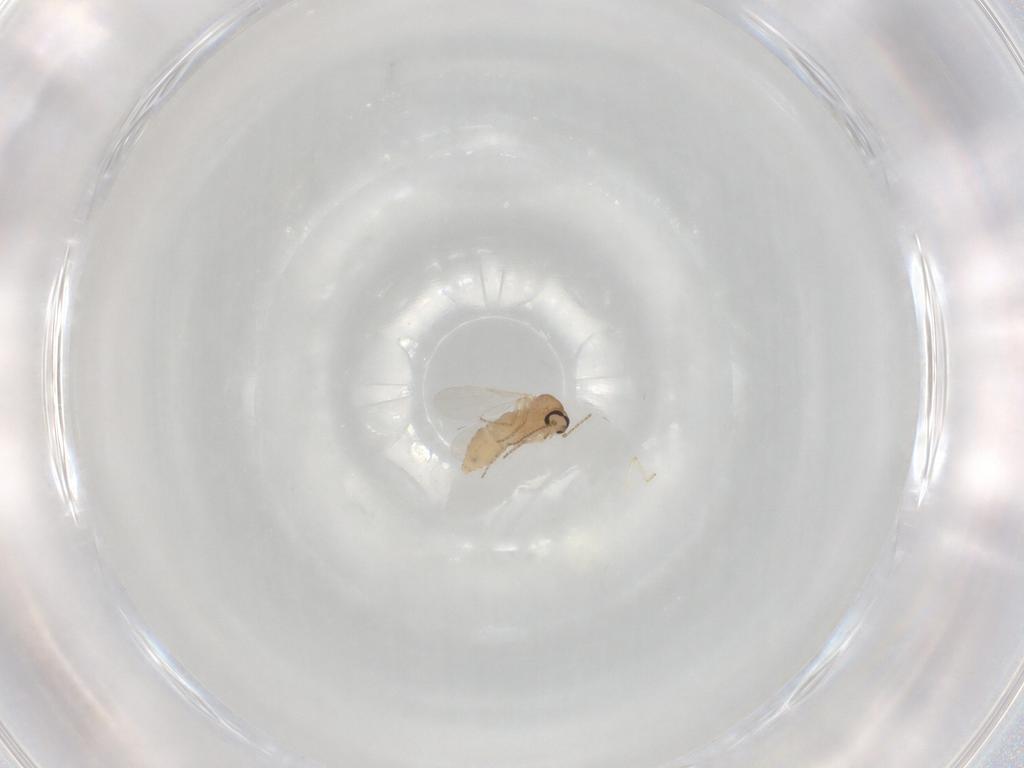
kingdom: Animalia
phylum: Arthropoda
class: Insecta
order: Diptera
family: Ceratopogonidae
